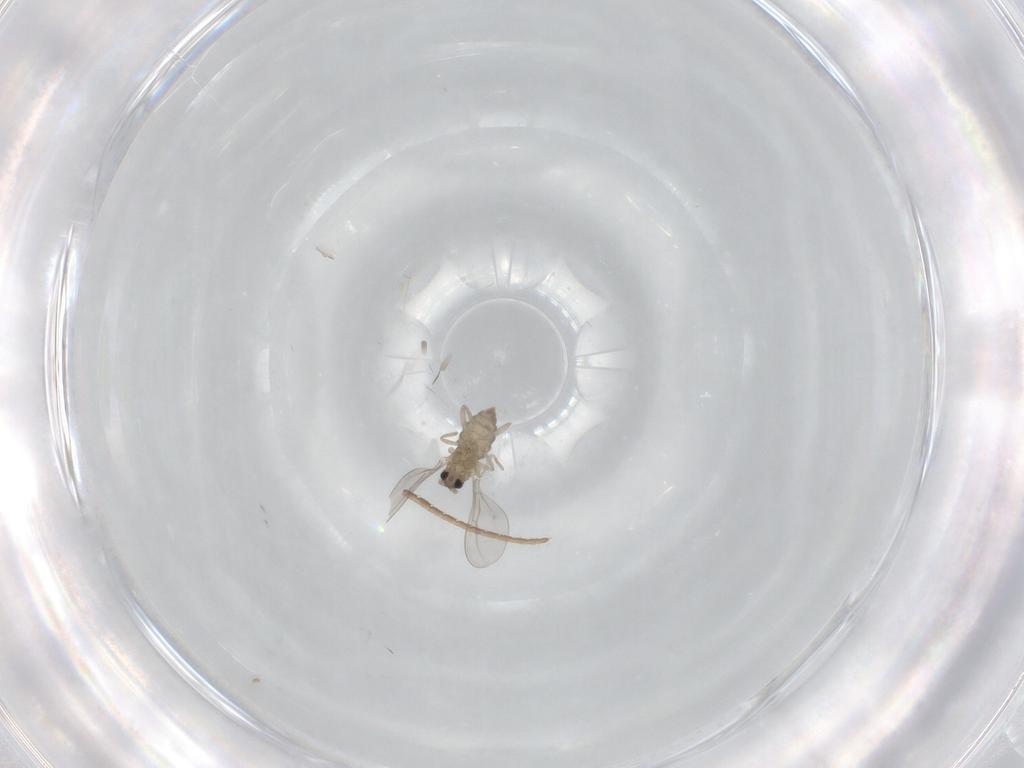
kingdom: Animalia
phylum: Arthropoda
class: Insecta
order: Diptera
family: Cecidomyiidae
